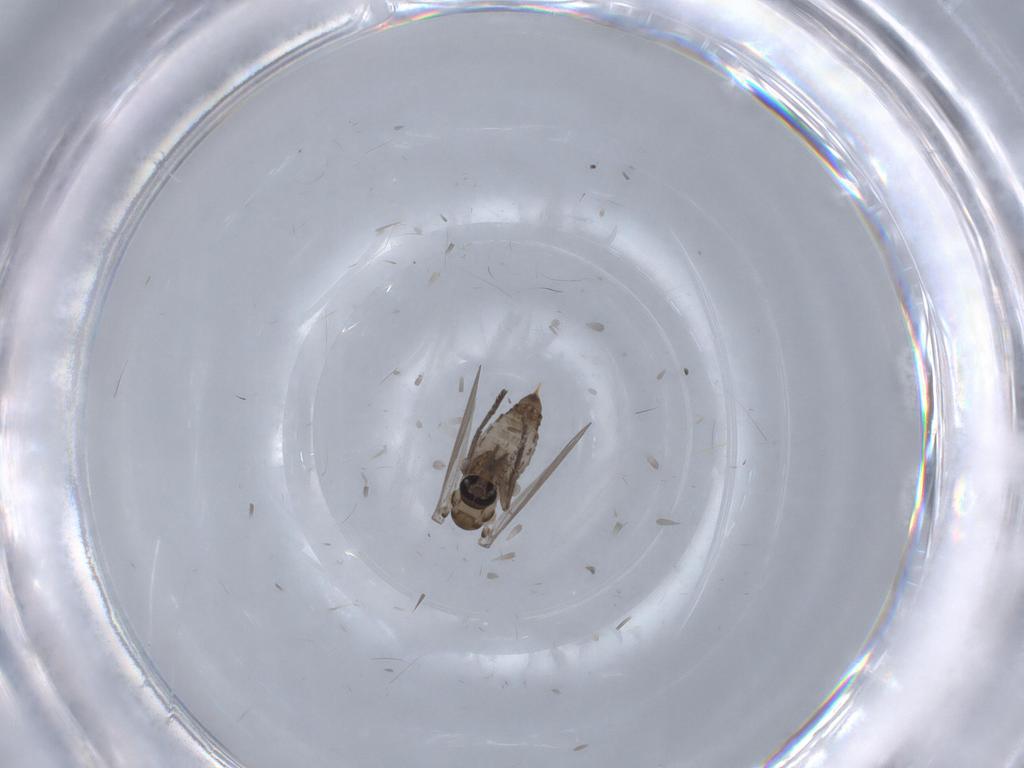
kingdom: Animalia
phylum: Arthropoda
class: Insecta
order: Diptera
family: Psychodidae
